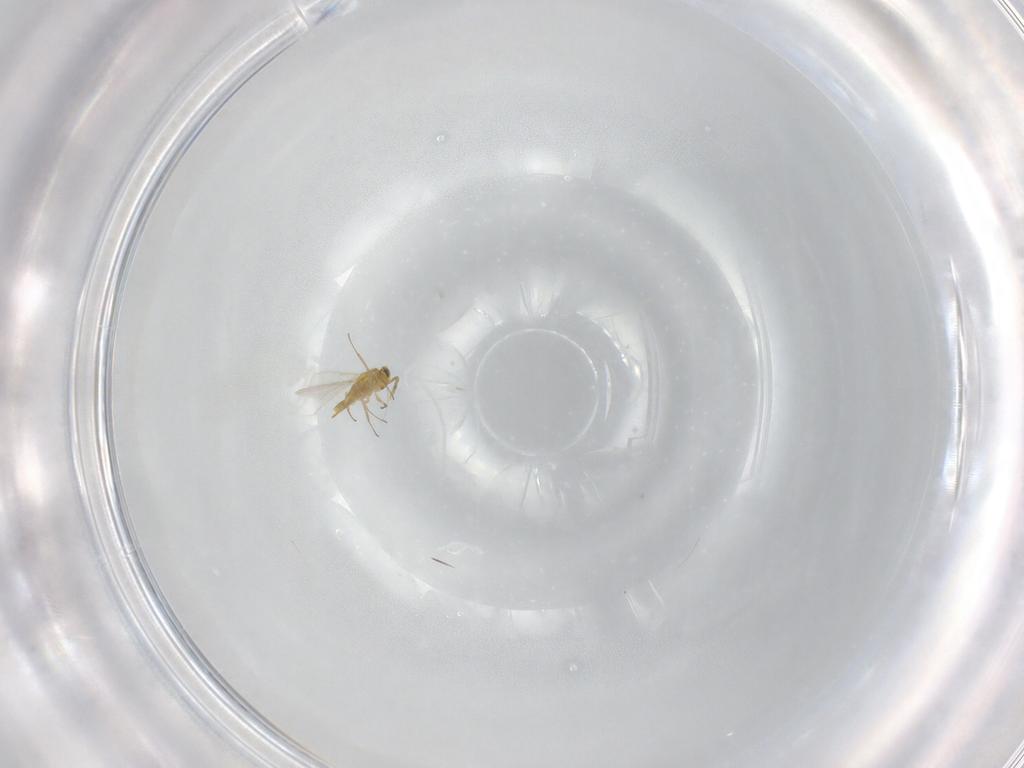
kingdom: Animalia
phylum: Arthropoda
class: Insecta
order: Hymenoptera
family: Aphelinidae
